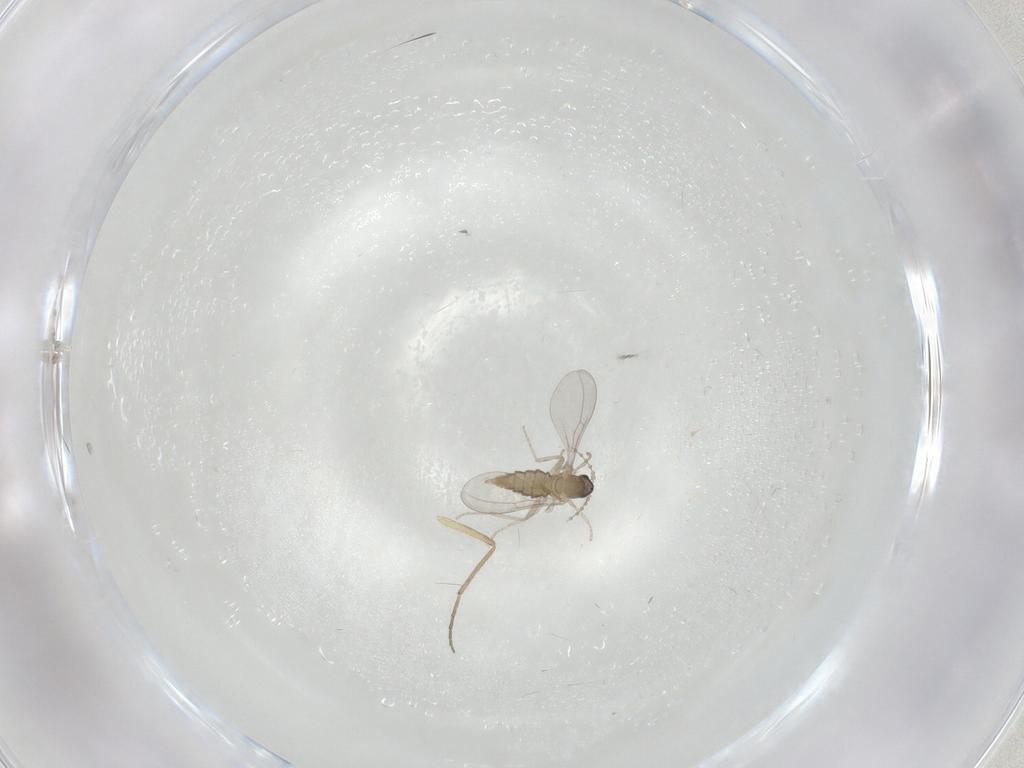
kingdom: Animalia
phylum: Arthropoda
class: Insecta
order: Diptera
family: Cecidomyiidae
